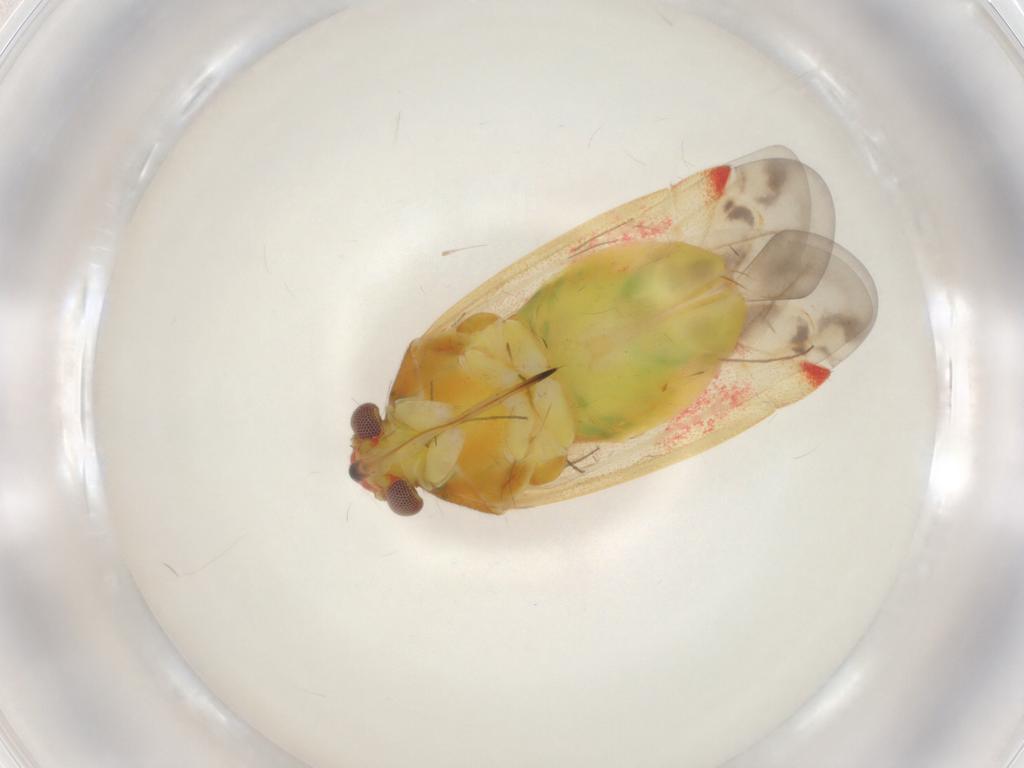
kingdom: Animalia
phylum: Arthropoda
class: Insecta
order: Hemiptera
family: Miridae
